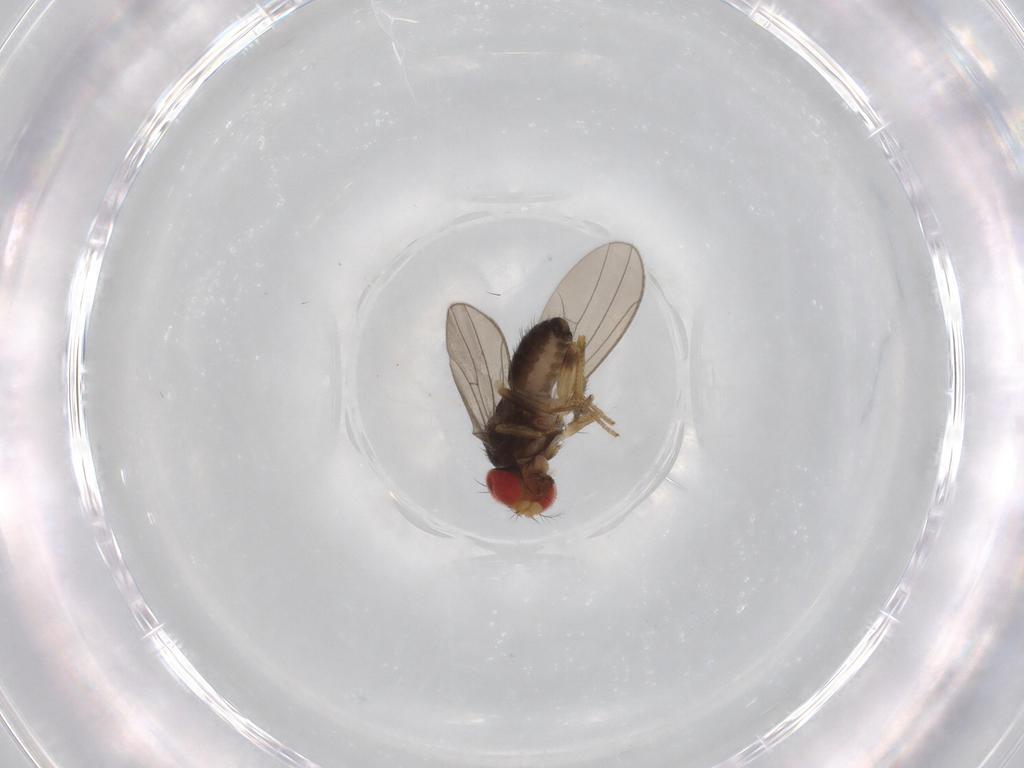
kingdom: Animalia
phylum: Arthropoda
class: Insecta
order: Diptera
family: Drosophilidae
